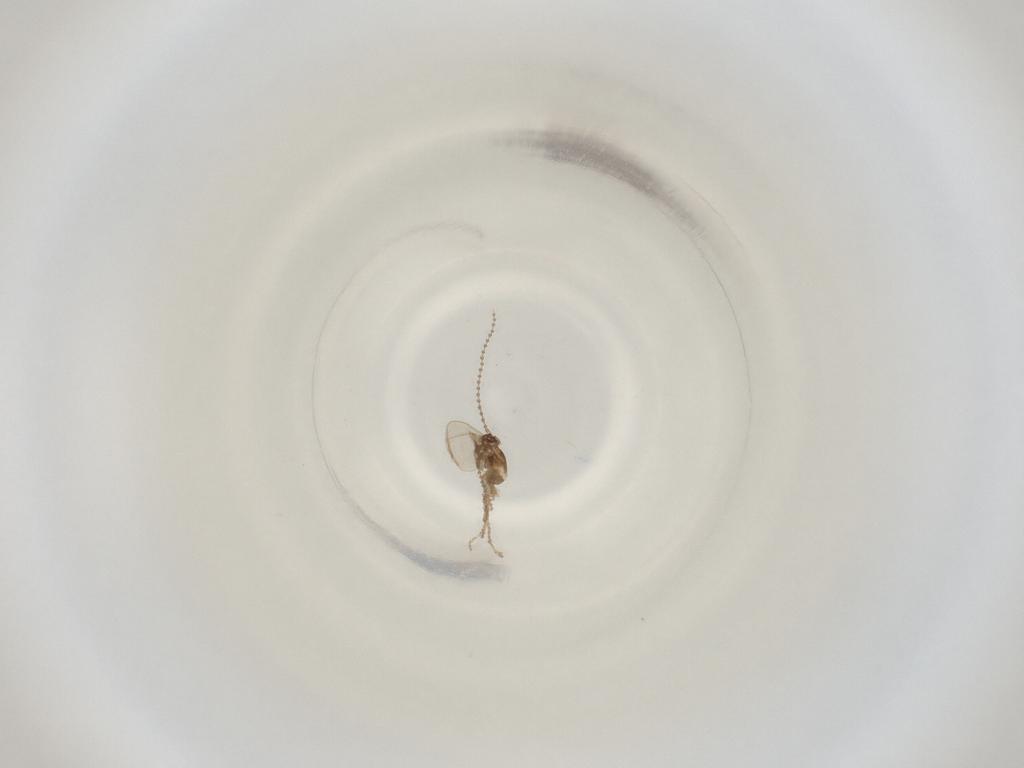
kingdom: Animalia
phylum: Arthropoda
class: Insecta
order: Diptera
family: Cecidomyiidae
